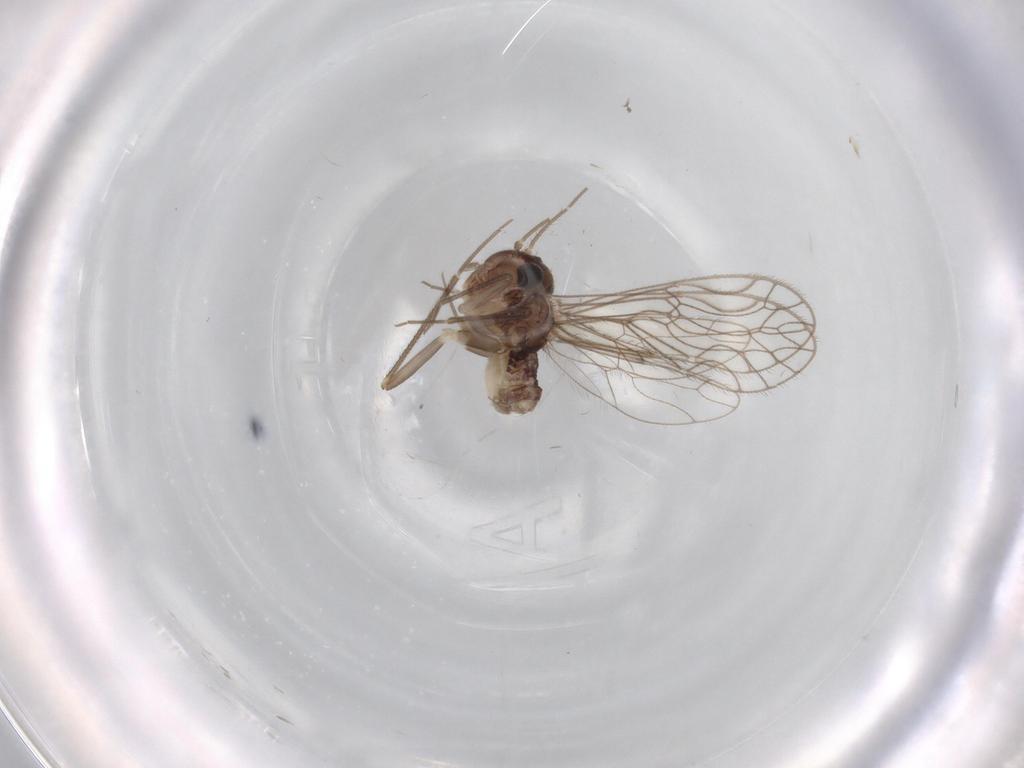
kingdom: Animalia
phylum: Arthropoda
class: Insecta
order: Psocodea
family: Epipsocidae
